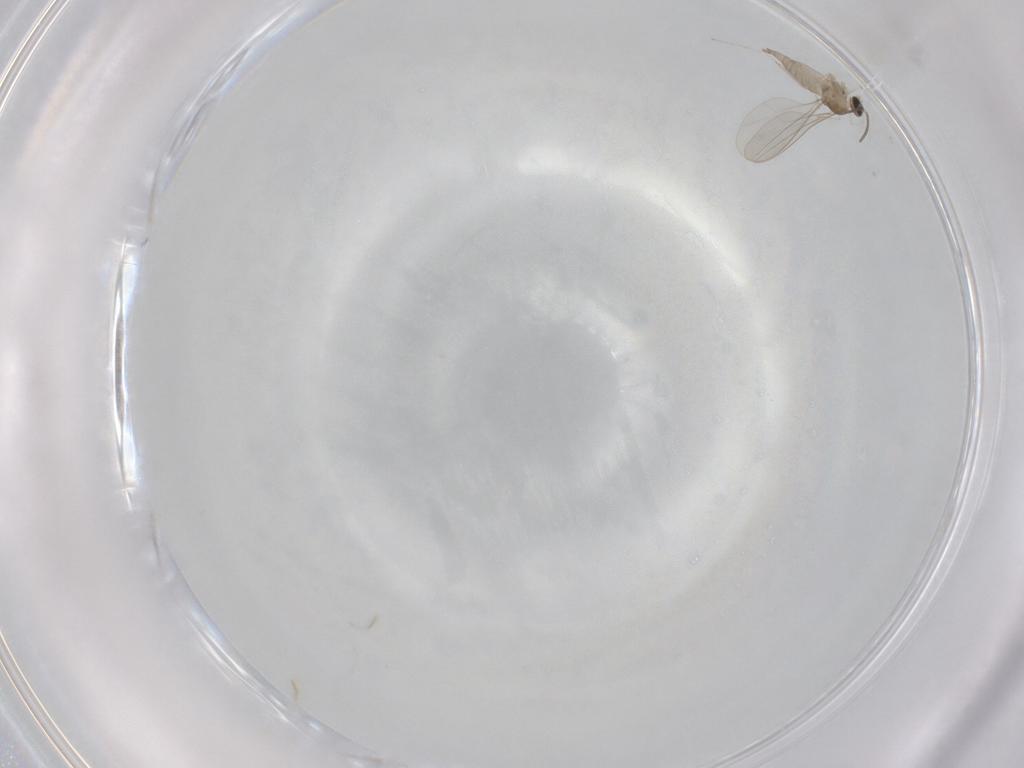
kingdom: Animalia
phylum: Arthropoda
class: Insecta
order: Diptera
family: Cecidomyiidae
